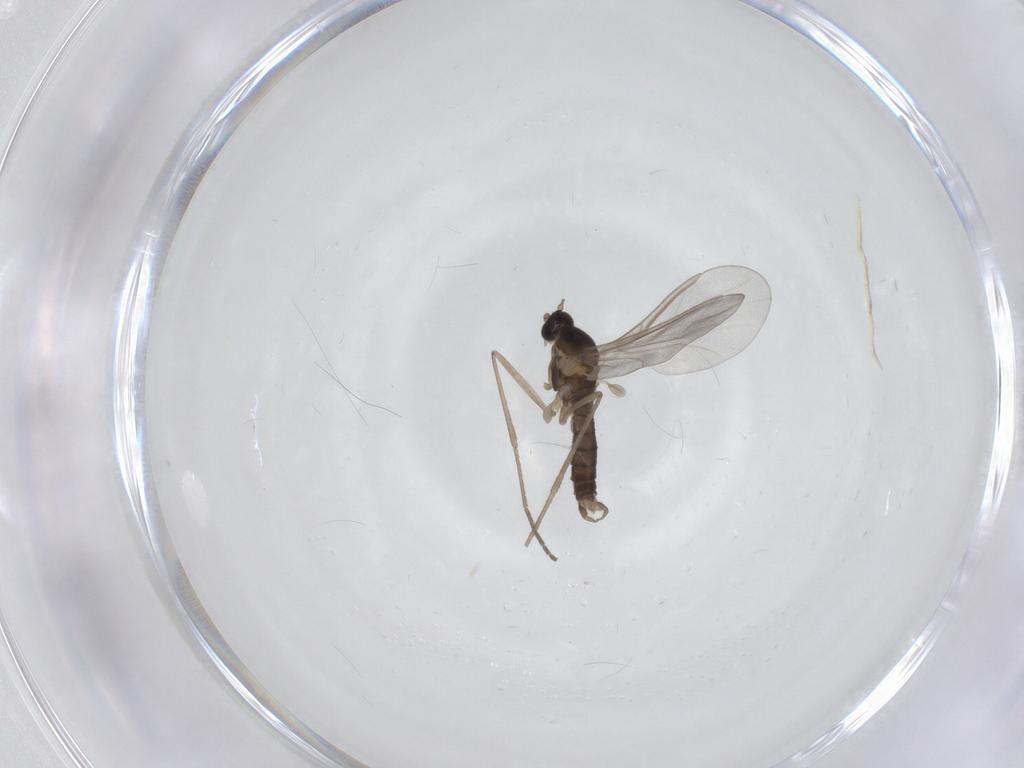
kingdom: Animalia
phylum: Arthropoda
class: Insecta
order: Diptera
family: Cecidomyiidae
